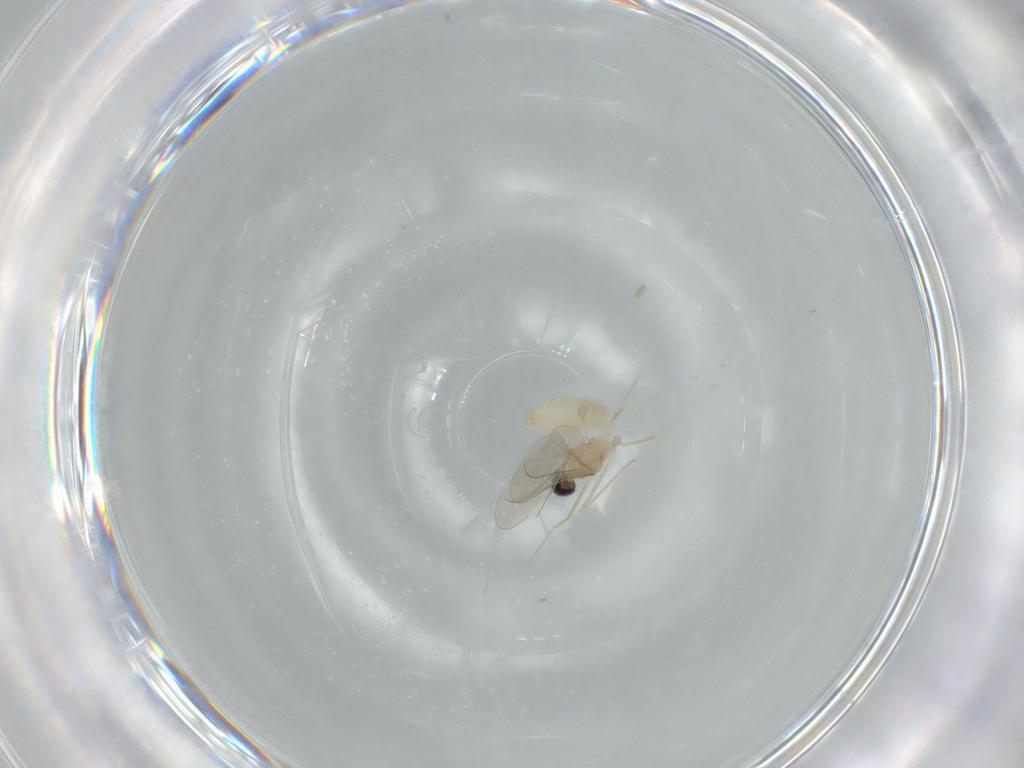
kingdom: Animalia
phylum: Arthropoda
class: Insecta
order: Diptera
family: Cecidomyiidae
